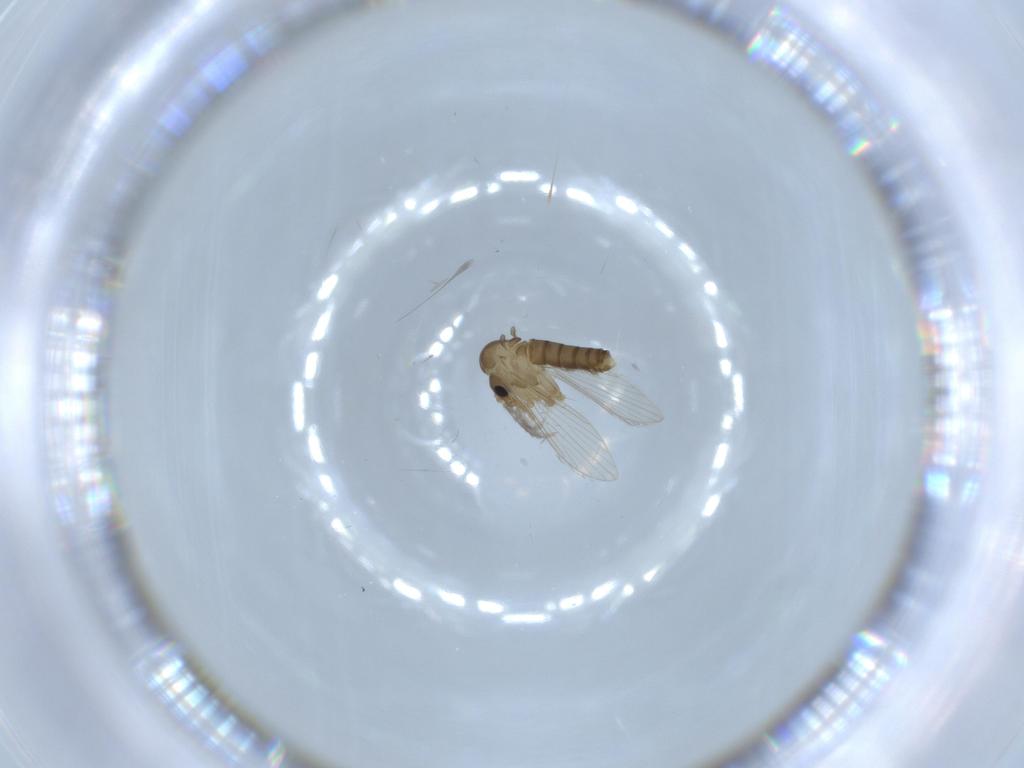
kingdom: Animalia
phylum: Arthropoda
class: Insecta
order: Diptera
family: Psychodidae
